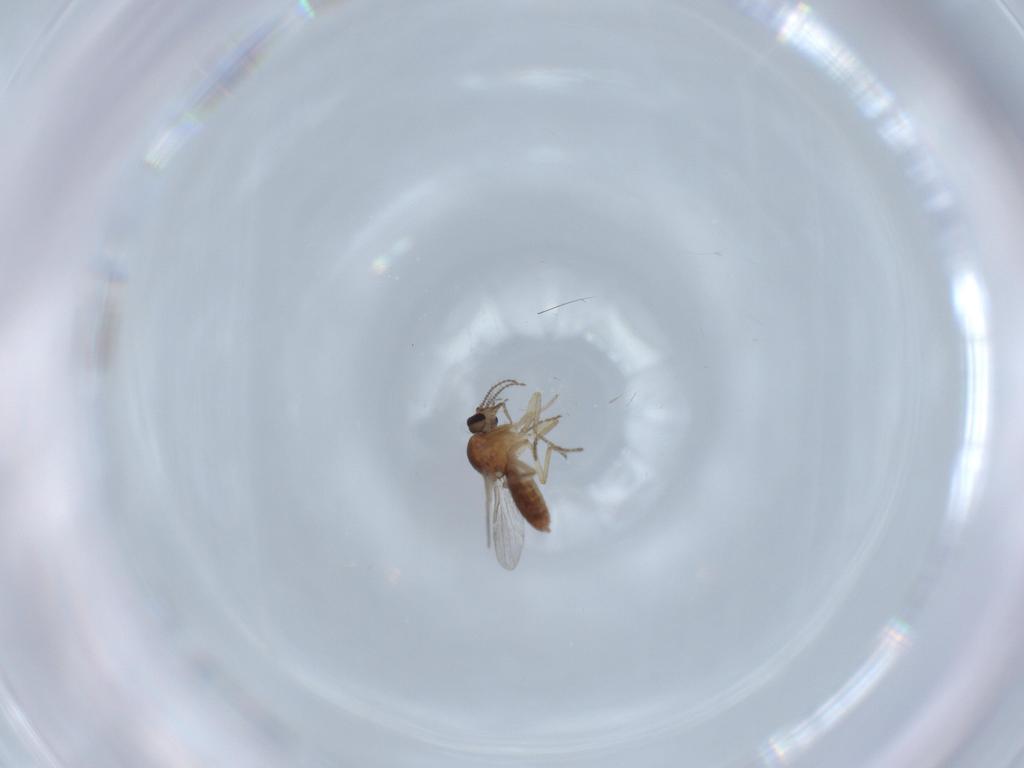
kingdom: Animalia
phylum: Arthropoda
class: Insecta
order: Diptera
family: Ceratopogonidae
